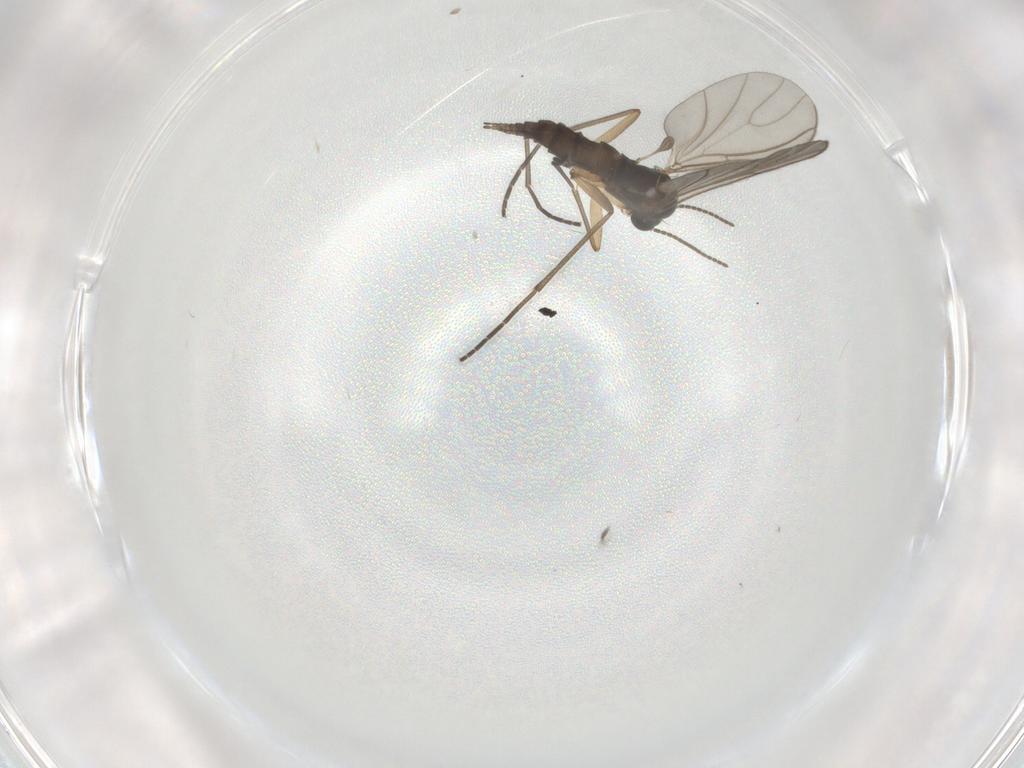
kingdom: Animalia
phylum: Arthropoda
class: Insecta
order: Diptera
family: Sciaridae
